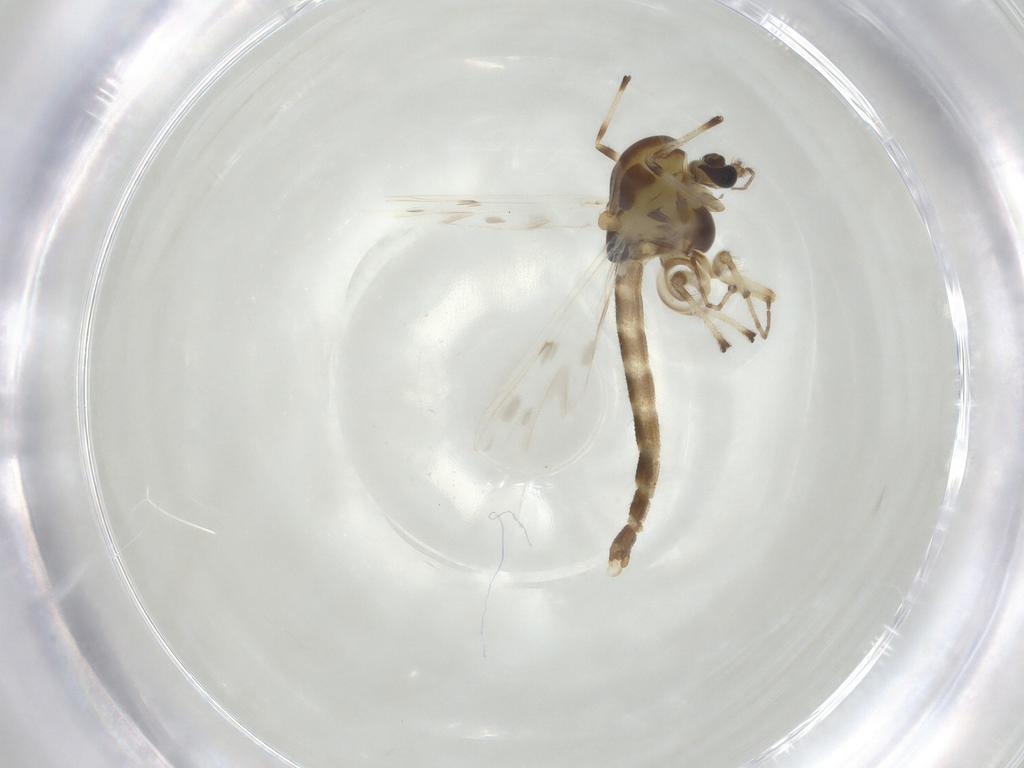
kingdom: Animalia
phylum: Arthropoda
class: Insecta
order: Diptera
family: Chironomidae
